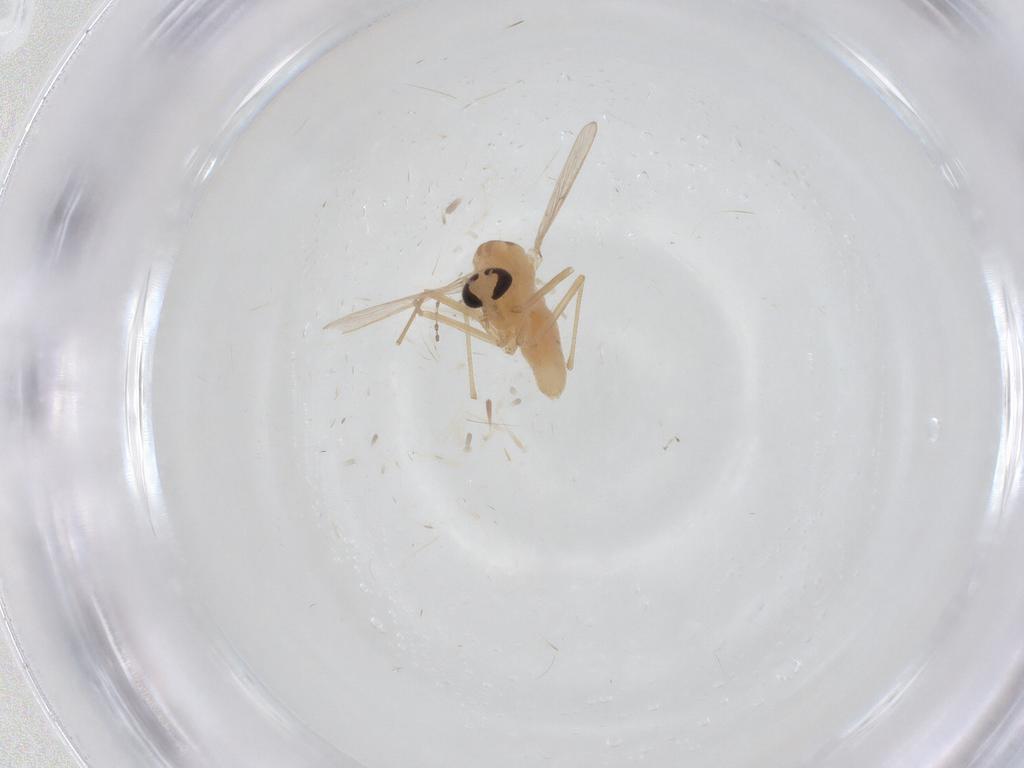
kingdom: Animalia
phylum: Arthropoda
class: Insecta
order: Diptera
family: Chironomidae
